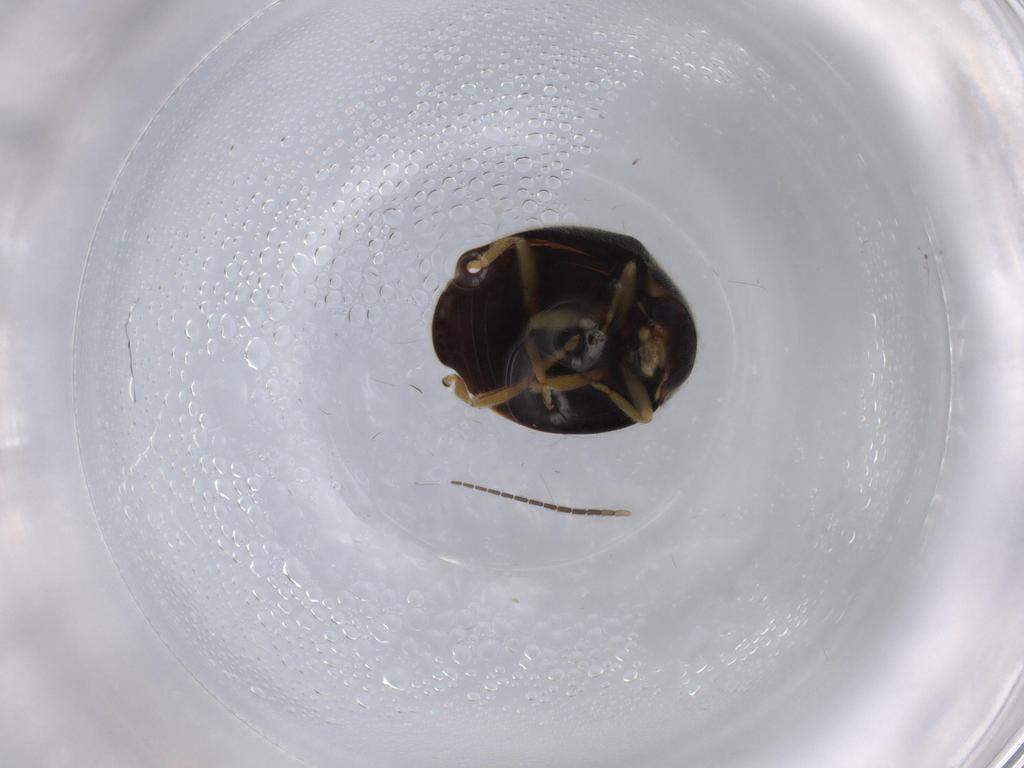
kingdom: Animalia
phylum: Arthropoda
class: Insecta
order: Coleoptera
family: Coccinellidae
